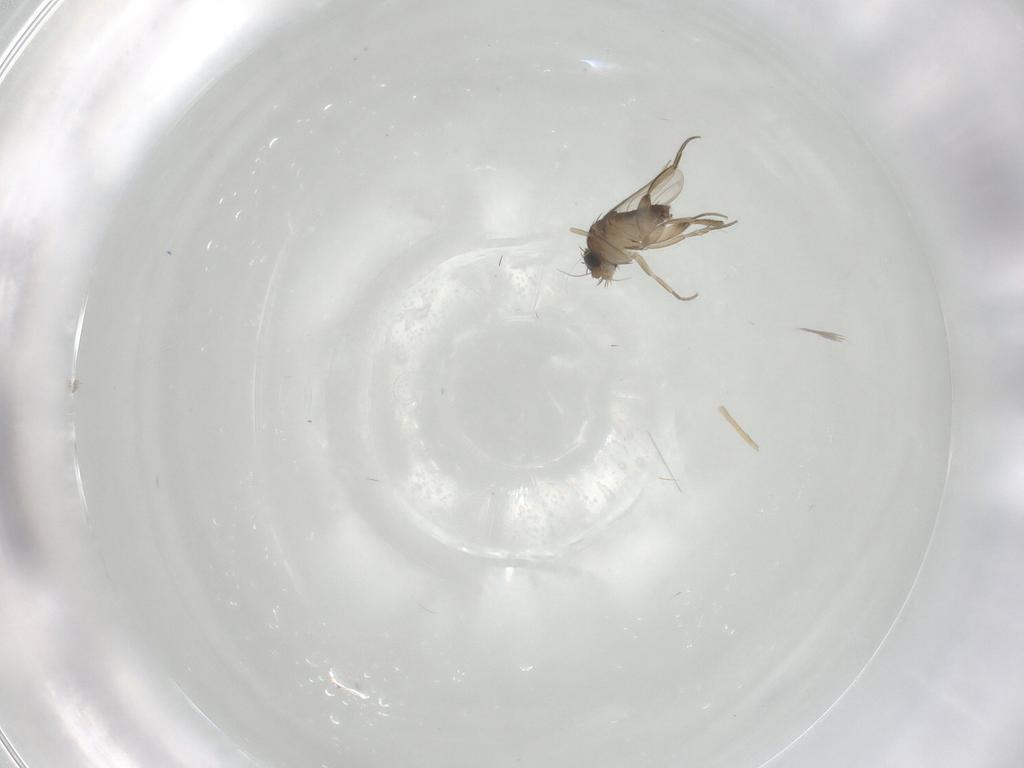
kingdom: Animalia
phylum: Arthropoda
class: Insecta
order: Diptera
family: Phoridae
